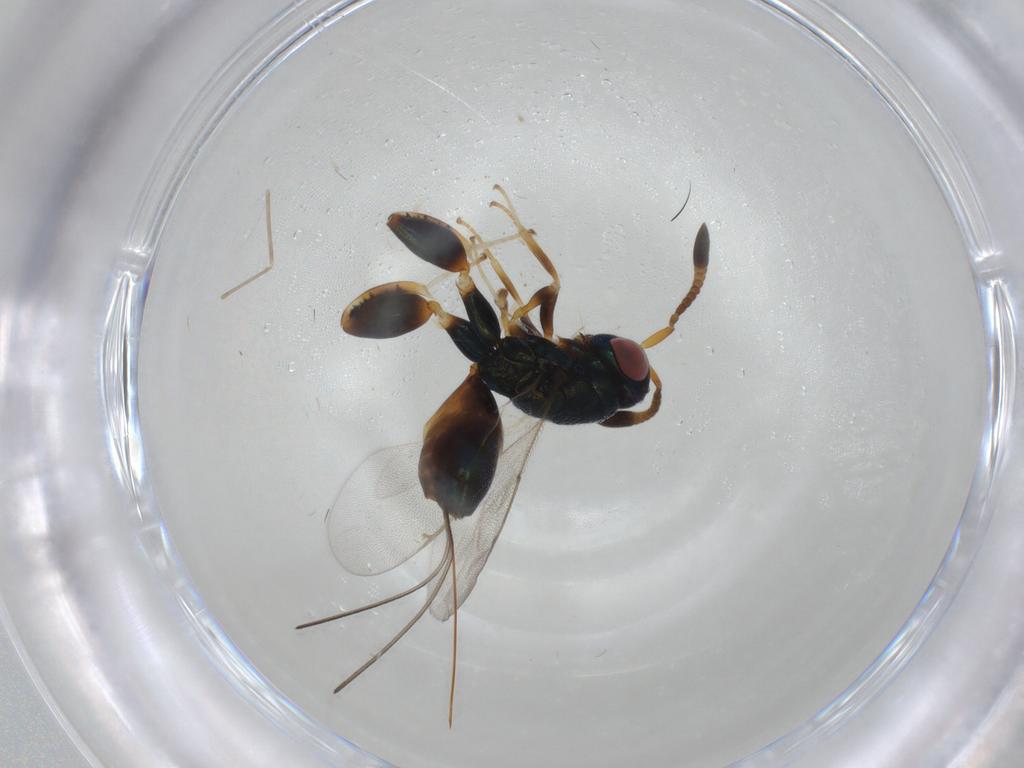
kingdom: Animalia
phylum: Arthropoda
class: Insecta
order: Hymenoptera
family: Torymidae
